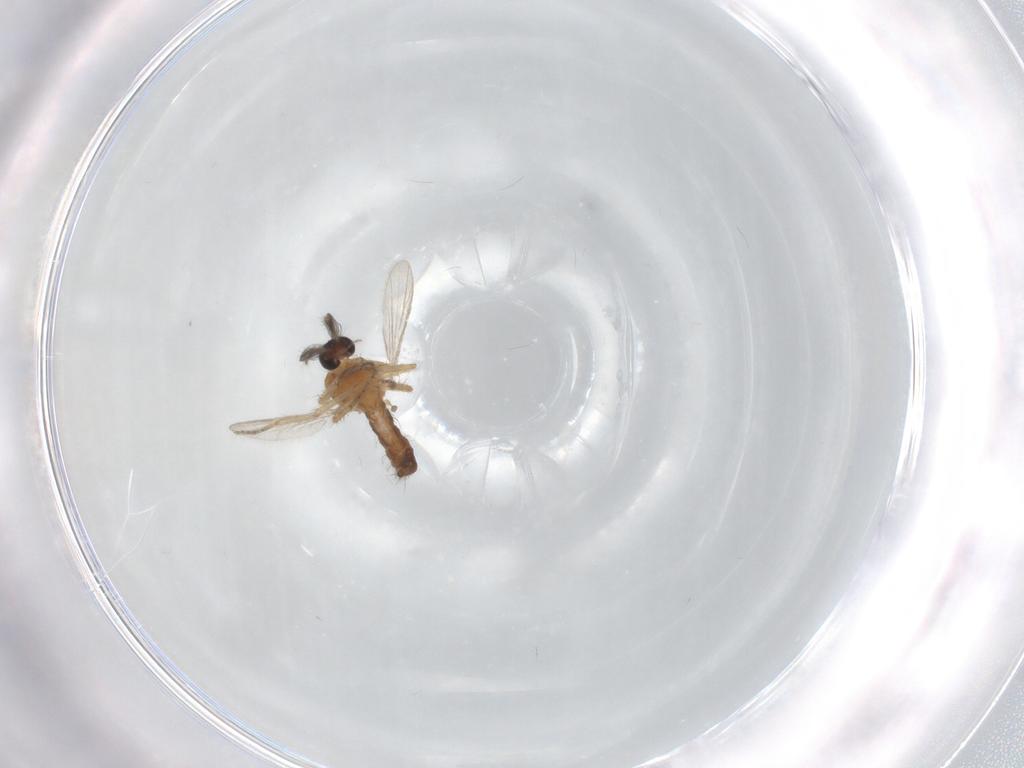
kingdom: Animalia
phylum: Arthropoda
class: Insecta
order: Diptera
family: Ceratopogonidae
